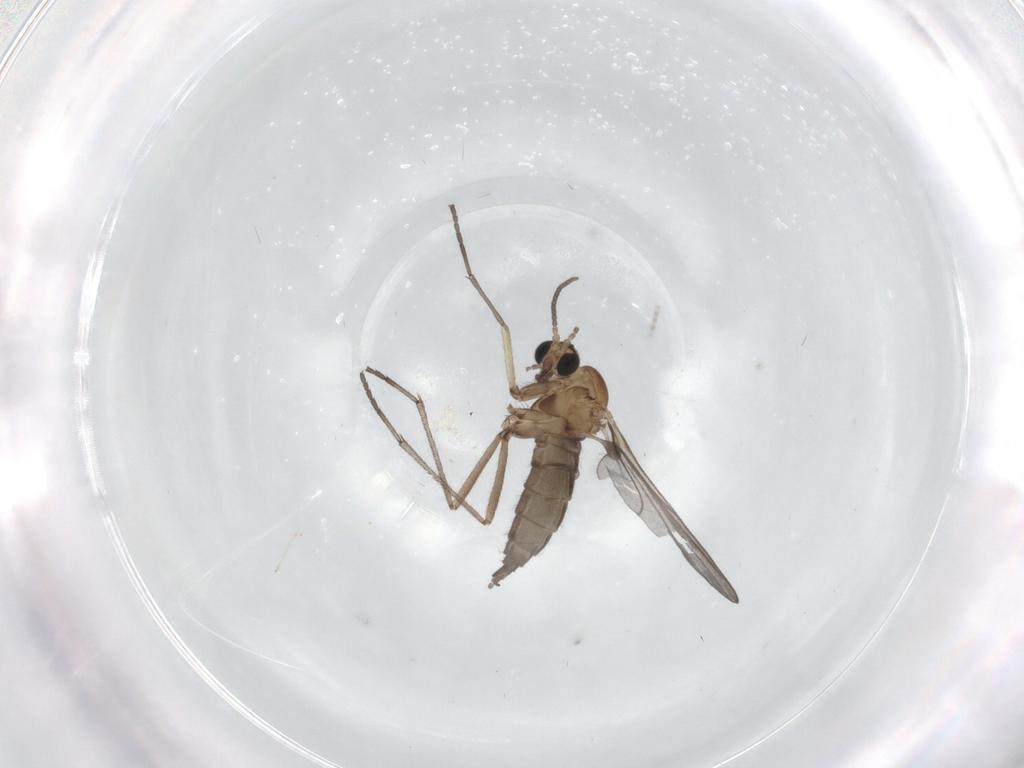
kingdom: Animalia
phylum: Arthropoda
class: Insecta
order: Diptera
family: Sciaridae
